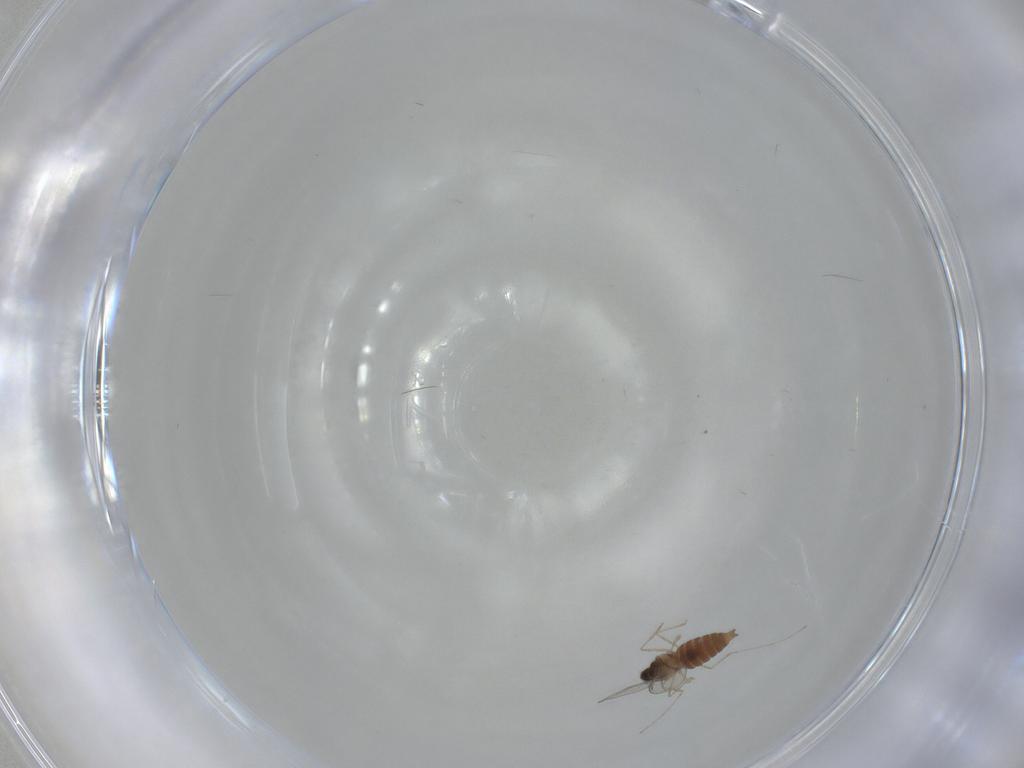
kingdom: Animalia
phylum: Arthropoda
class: Insecta
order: Diptera
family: Cecidomyiidae
